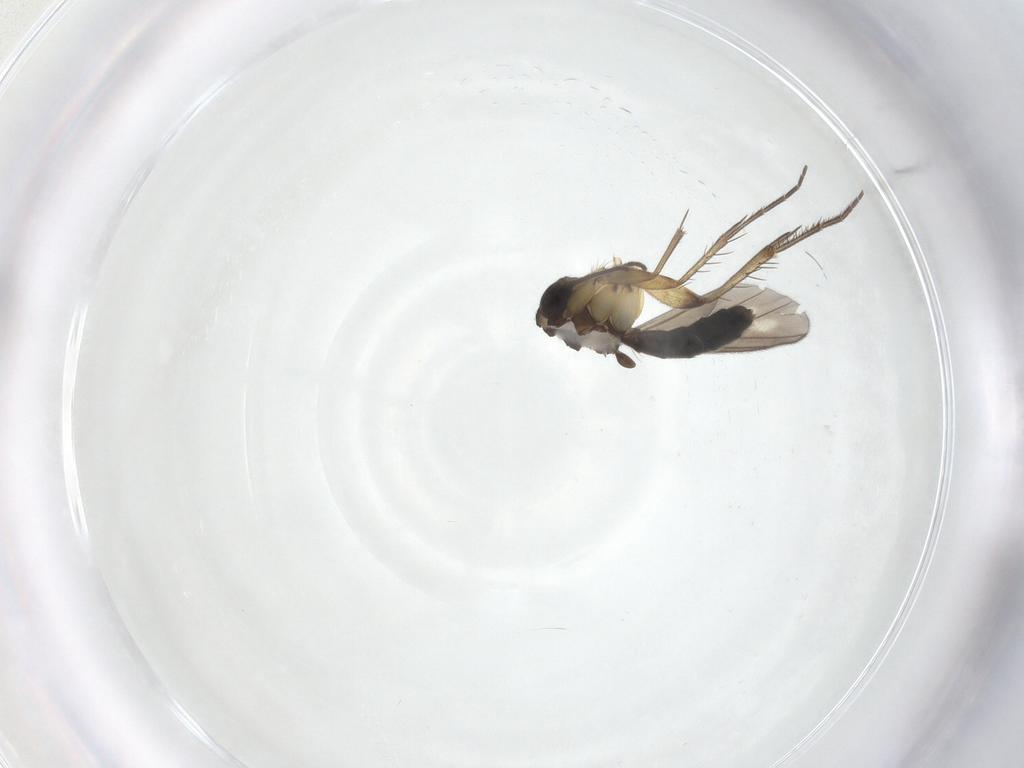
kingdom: Animalia
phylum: Arthropoda
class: Insecta
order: Diptera
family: Mycetophilidae
